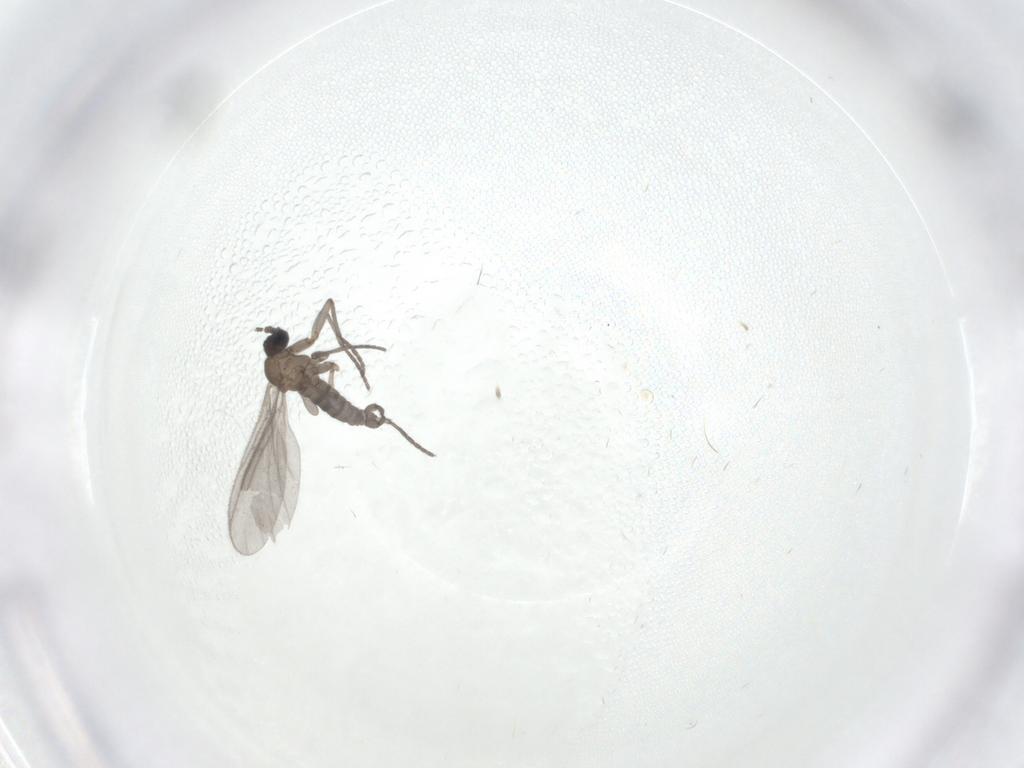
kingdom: Animalia
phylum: Arthropoda
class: Insecta
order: Diptera
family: Sciaridae
